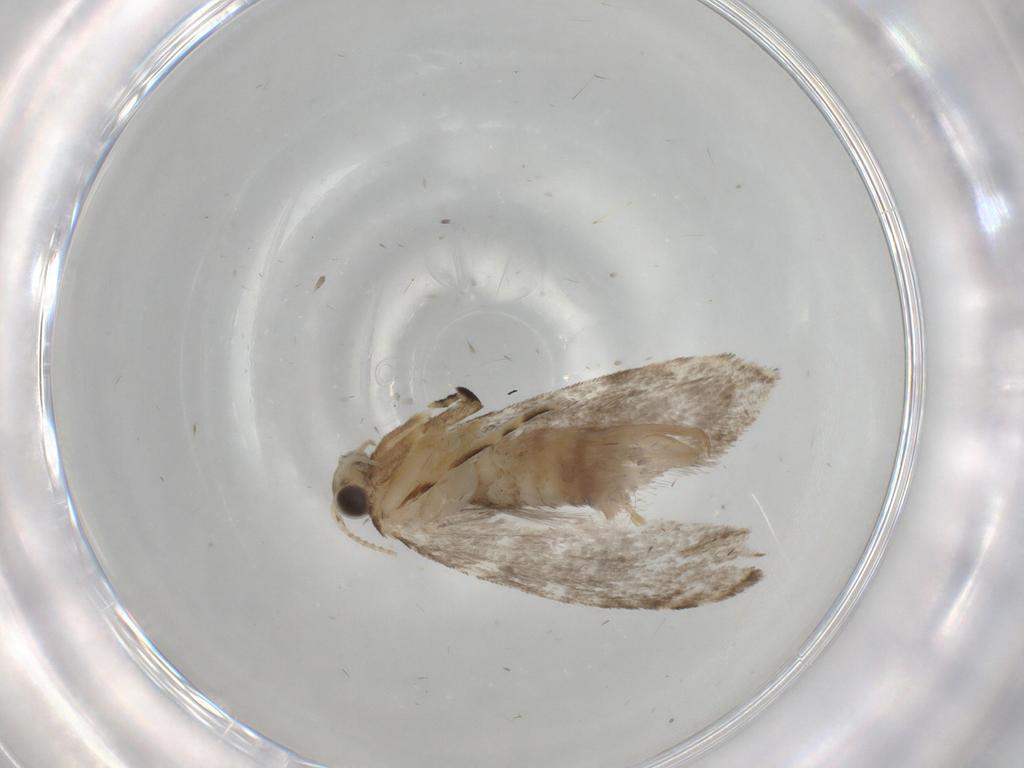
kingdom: Animalia
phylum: Arthropoda
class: Insecta
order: Lepidoptera
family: Tineidae
